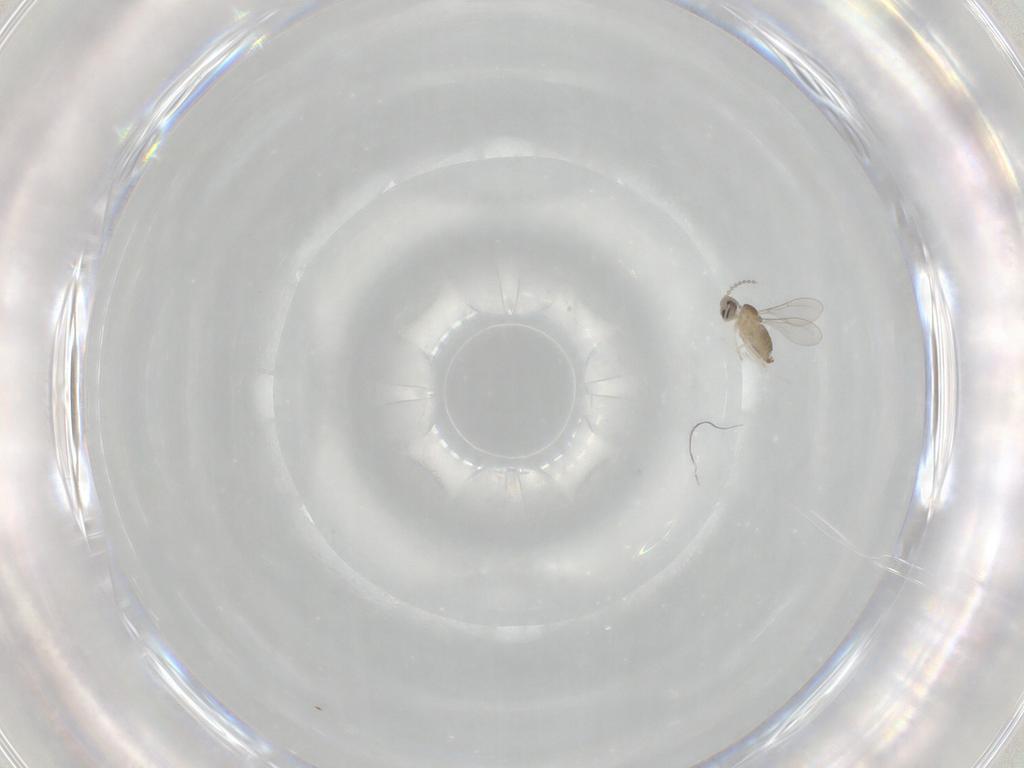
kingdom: Animalia
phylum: Arthropoda
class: Insecta
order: Diptera
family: Cecidomyiidae
